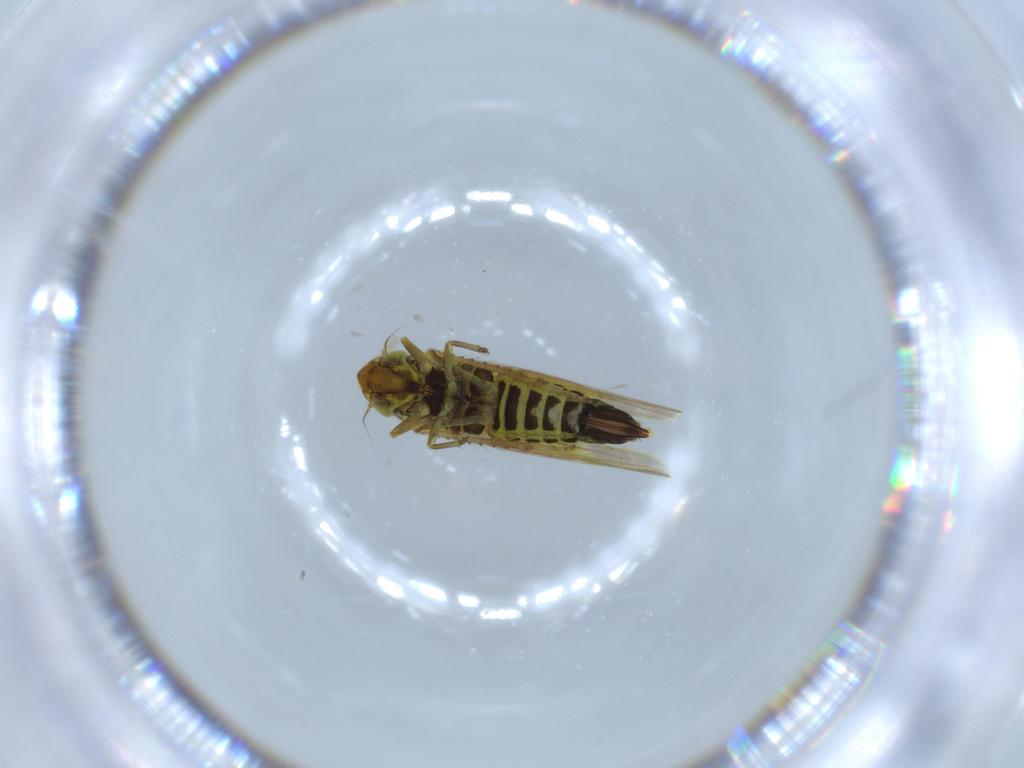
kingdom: Animalia
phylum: Arthropoda
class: Insecta
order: Hemiptera
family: Cicadellidae
